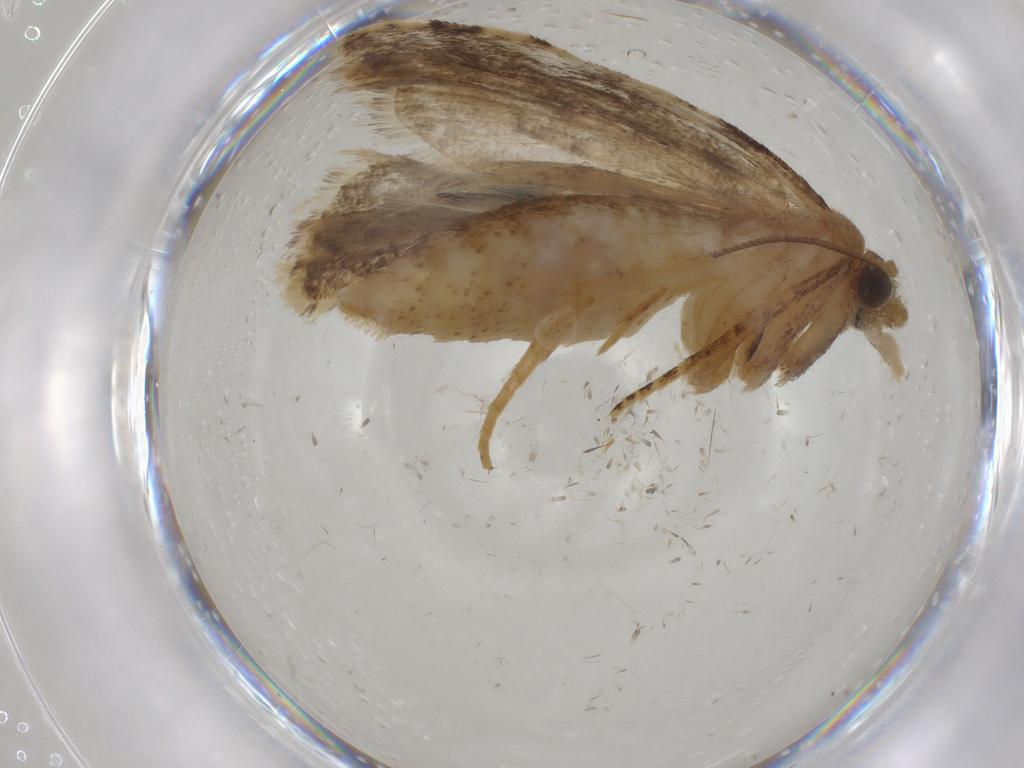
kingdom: Animalia
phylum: Arthropoda
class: Insecta
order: Lepidoptera
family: Tortricidae
